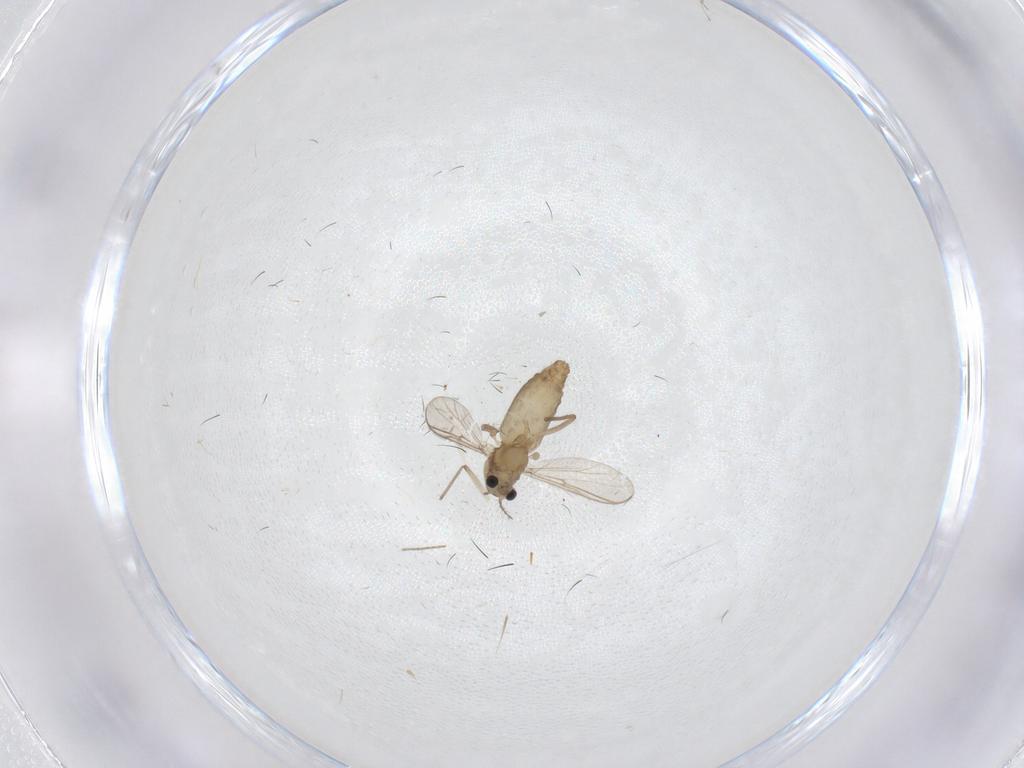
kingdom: Animalia
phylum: Arthropoda
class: Insecta
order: Diptera
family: Chironomidae
